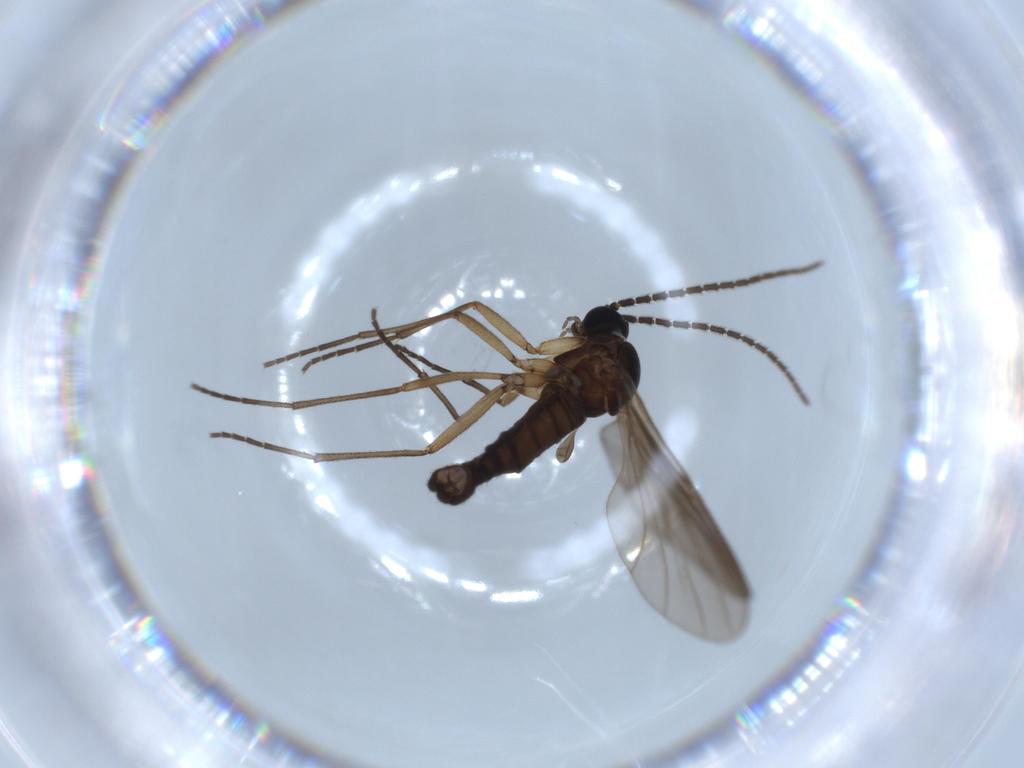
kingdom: Animalia
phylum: Arthropoda
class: Insecta
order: Diptera
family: Sciaridae
